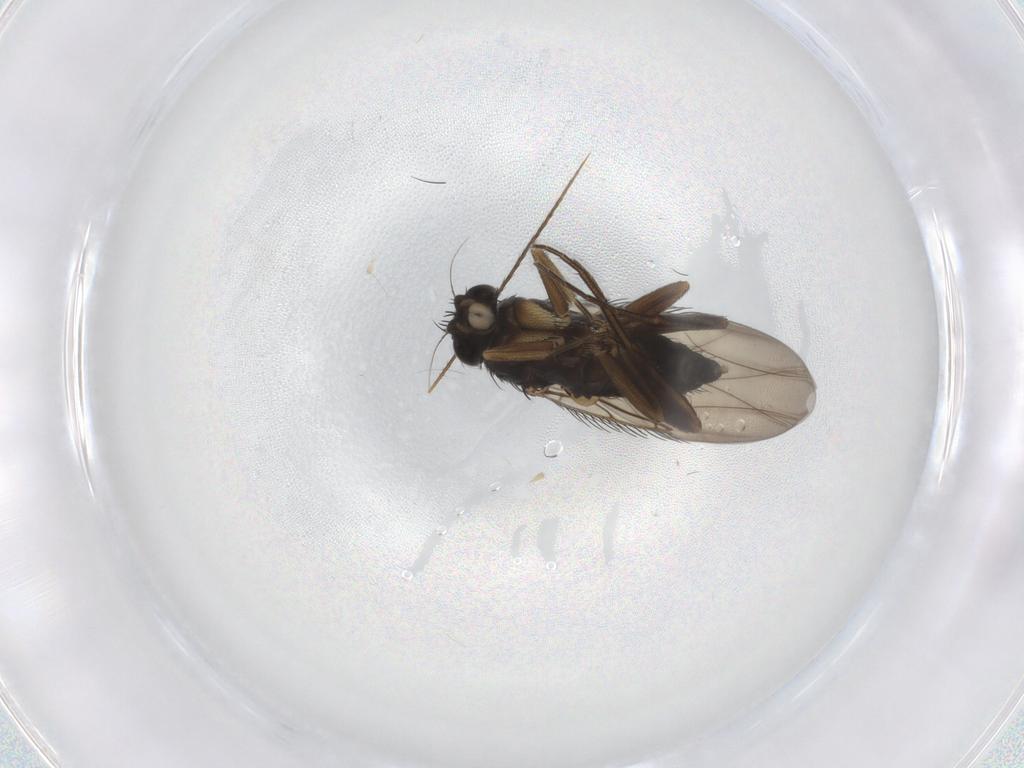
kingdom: Animalia
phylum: Arthropoda
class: Insecta
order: Diptera
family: Phoridae
